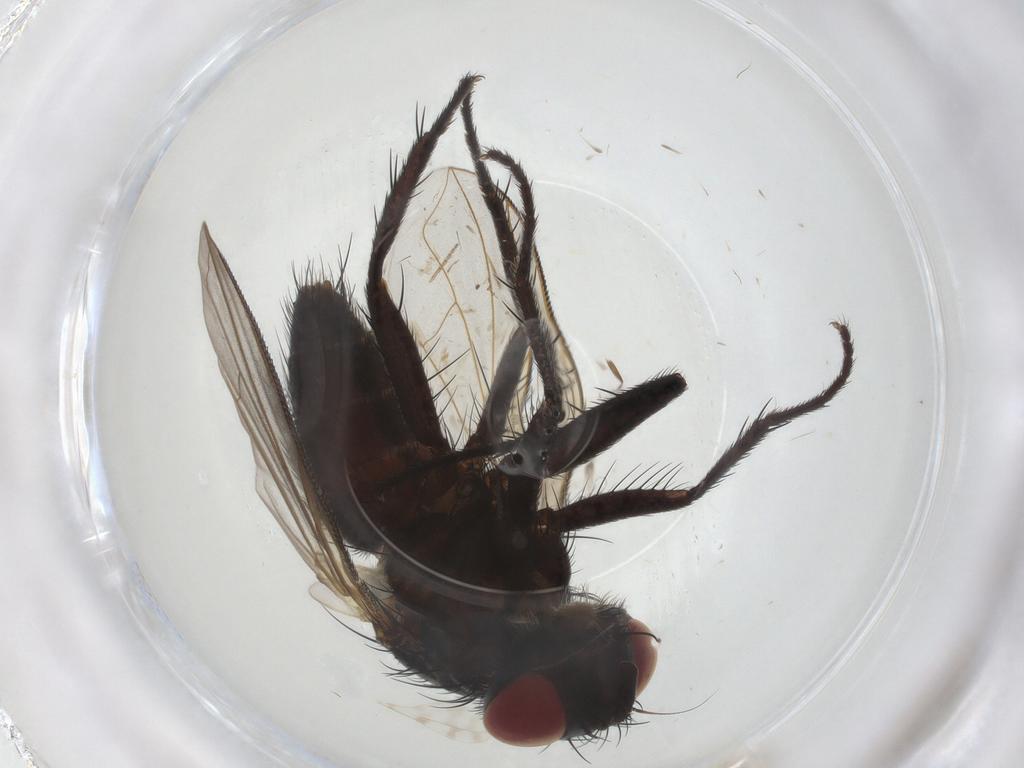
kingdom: Animalia
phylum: Arthropoda
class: Insecta
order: Diptera
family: Tachinidae
